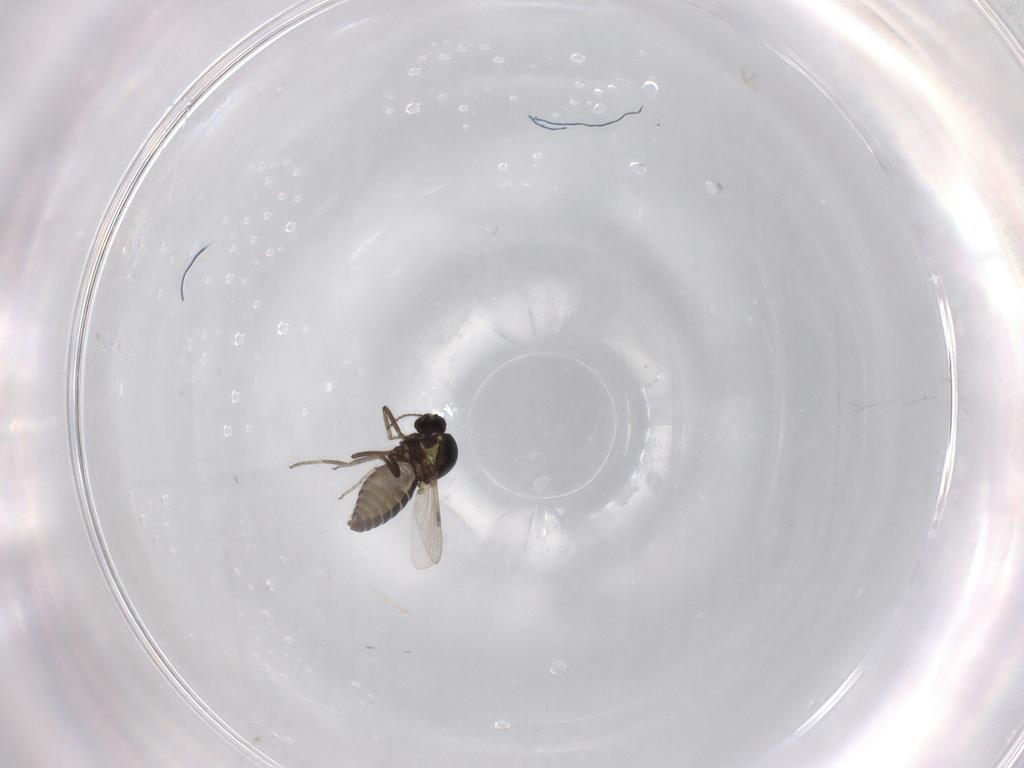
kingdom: Animalia
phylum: Arthropoda
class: Insecta
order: Diptera
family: Ceratopogonidae
